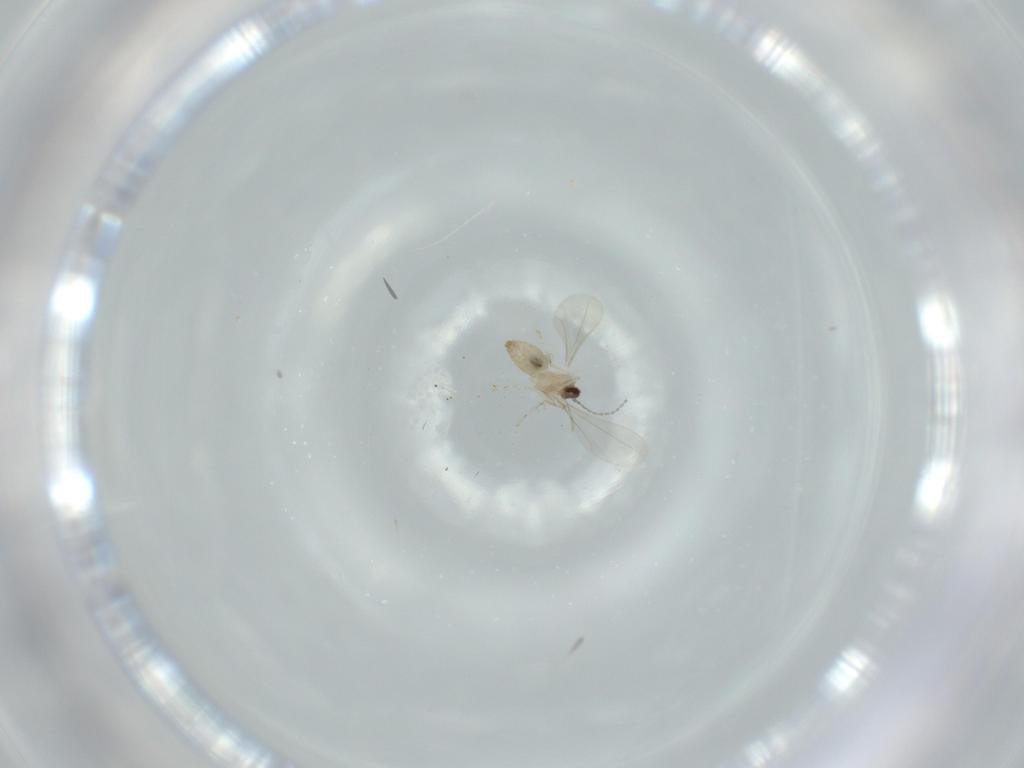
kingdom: Animalia
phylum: Arthropoda
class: Insecta
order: Diptera
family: Cecidomyiidae
